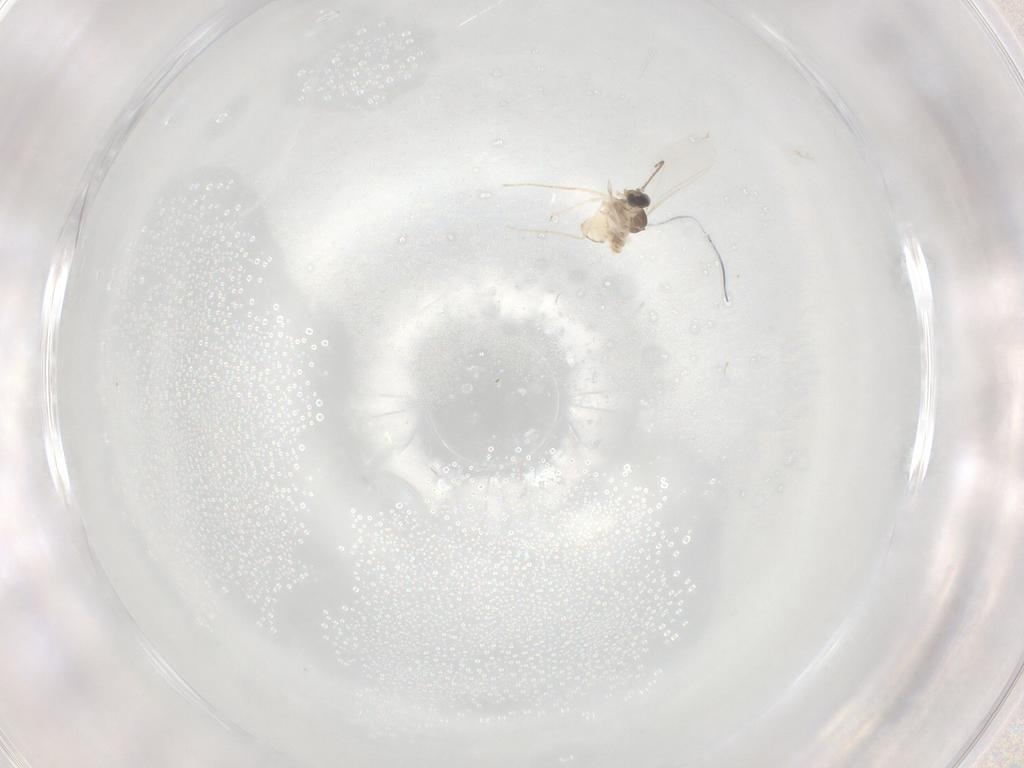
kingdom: Animalia
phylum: Arthropoda
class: Insecta
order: Diptera
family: Cecidomyiidae
